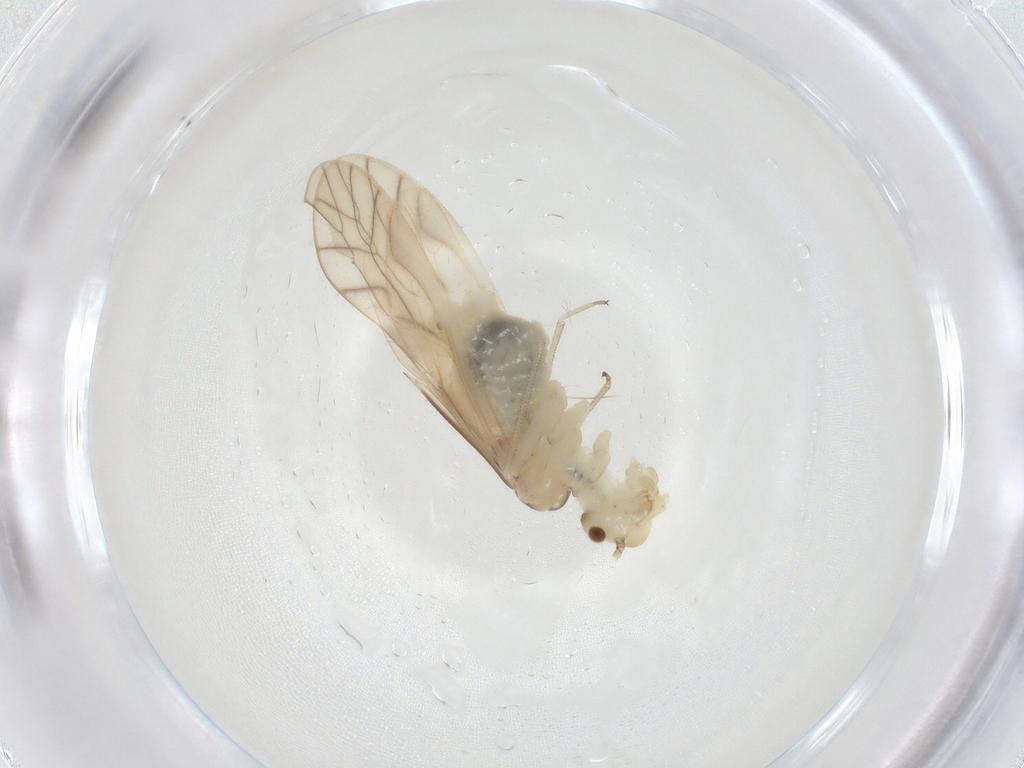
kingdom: Animalia
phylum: Arthropoda
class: Insecta
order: Psocodea
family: Caeciliusidae
